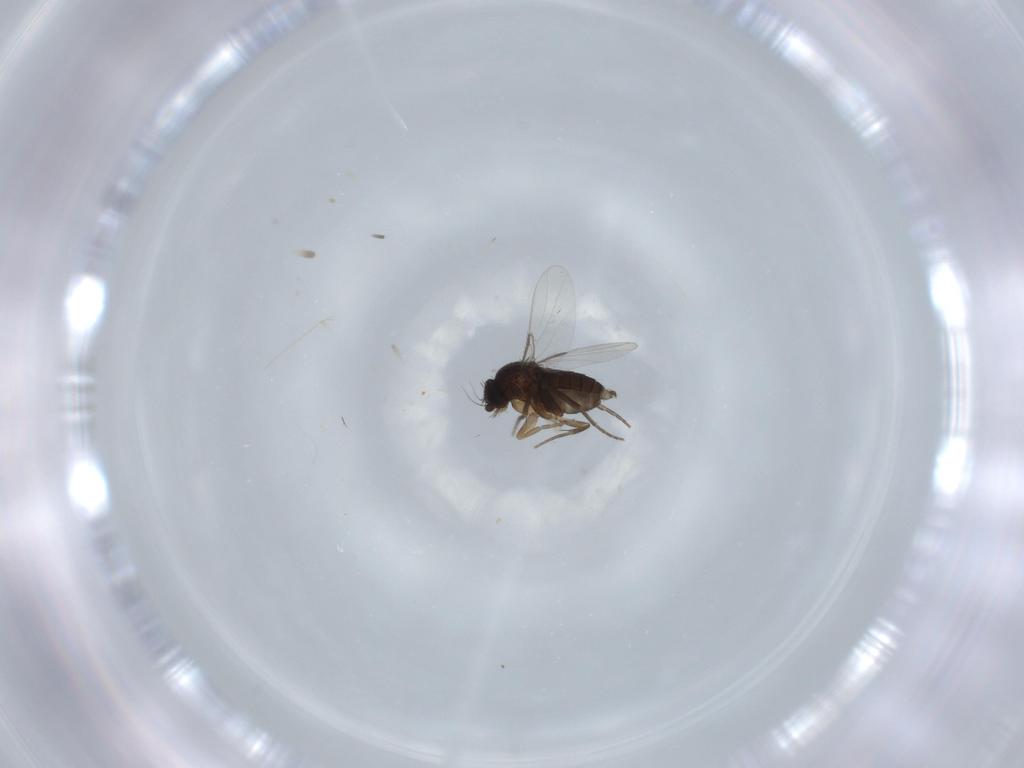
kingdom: Animalia
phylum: Arthropoda
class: Insecta
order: Diptera
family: Phoridae
